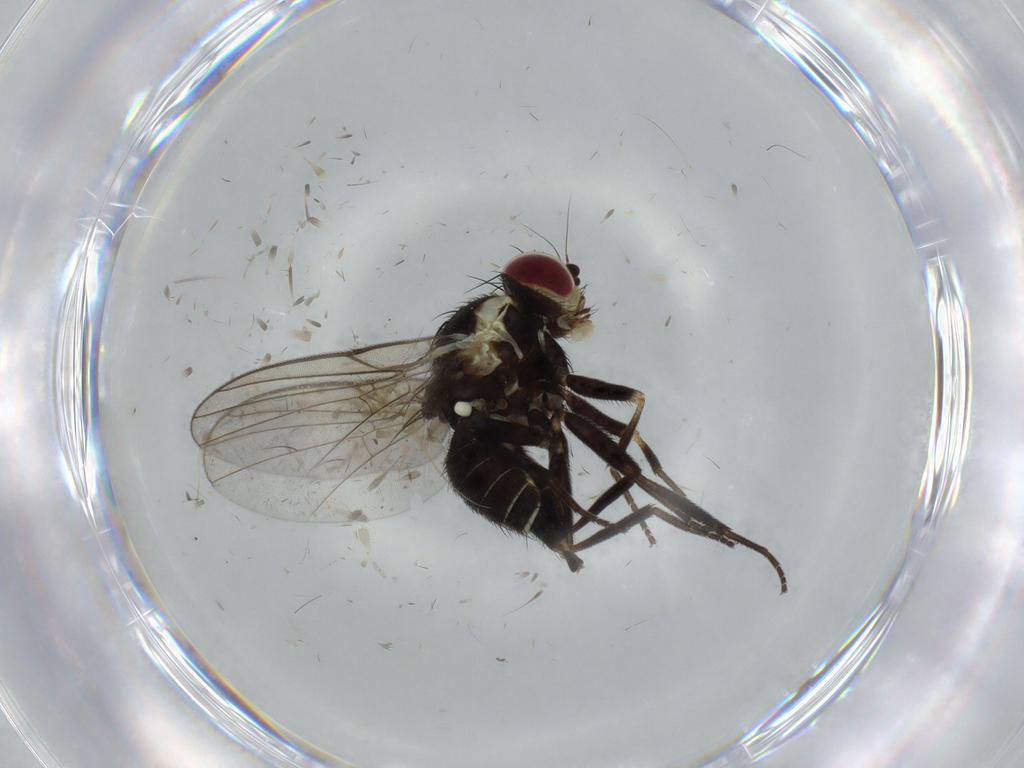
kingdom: Animalia
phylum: Arthropoda
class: Insecta
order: Diptera
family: Agromyzidae
